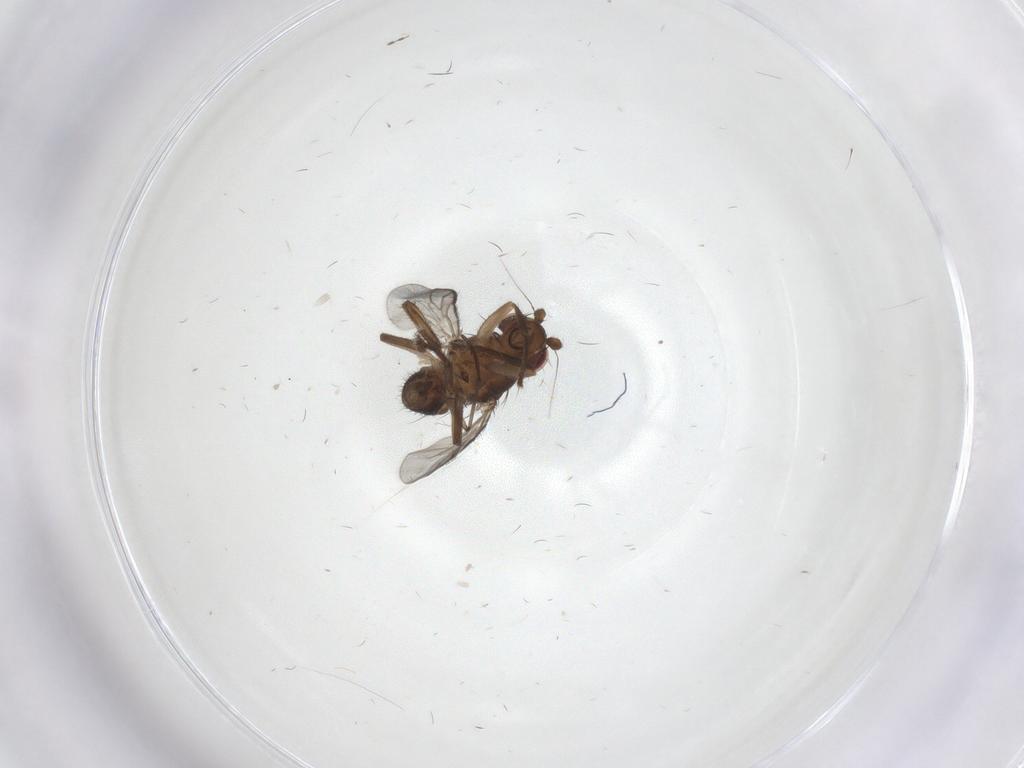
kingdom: Animalia
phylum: Arthropoda
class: Insecta
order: Diptera
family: Sphaeroceridae
